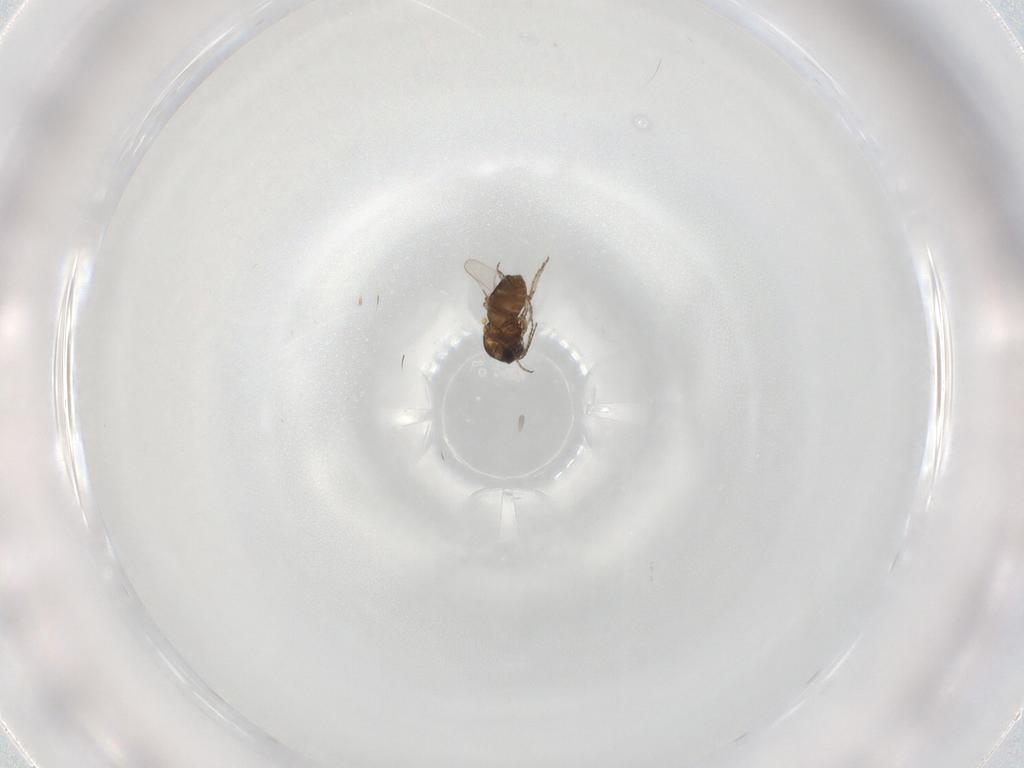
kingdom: Animalia
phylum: Arthropoda
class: Insecta
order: Diptera
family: Psychodidae
